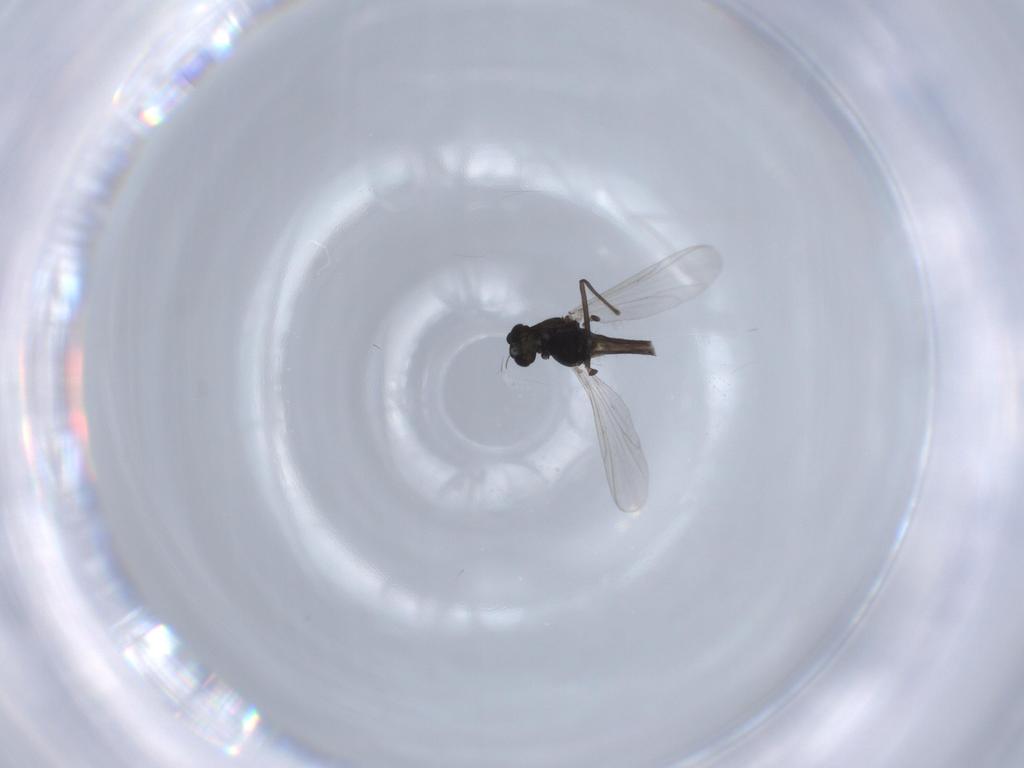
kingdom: Animalia
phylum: Arthropoda
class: Insecta
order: Diptera
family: Chironomidae
